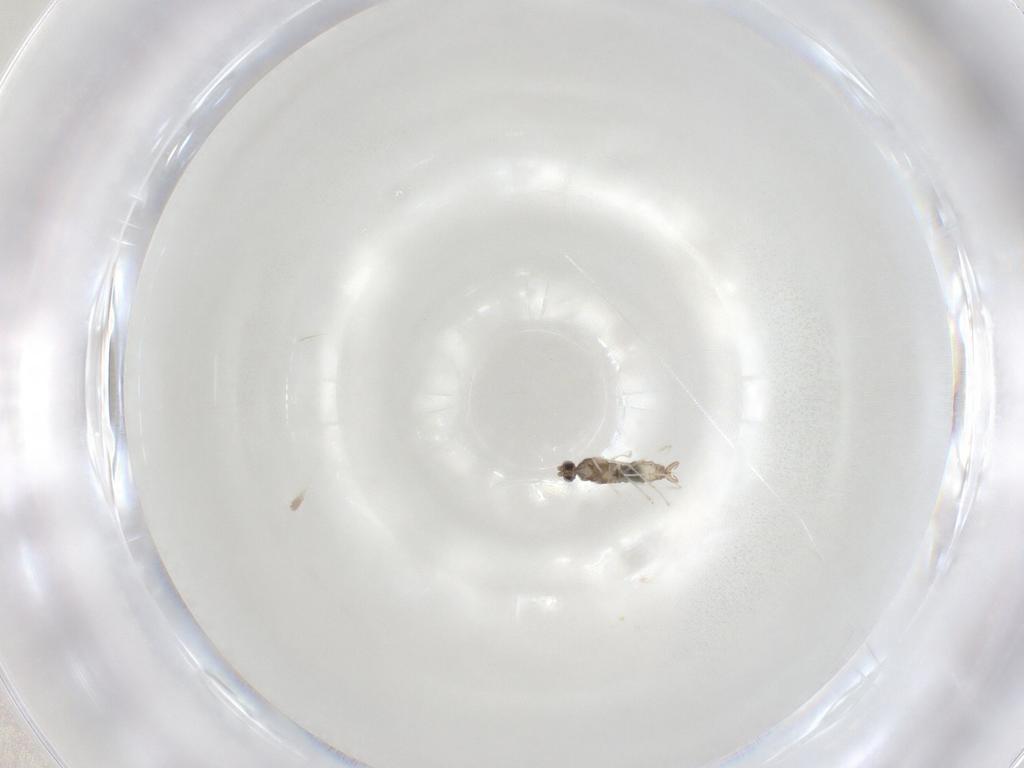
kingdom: Animalia
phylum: Arthropoda
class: Insecta
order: Diptera
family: Cecidomyiidae
